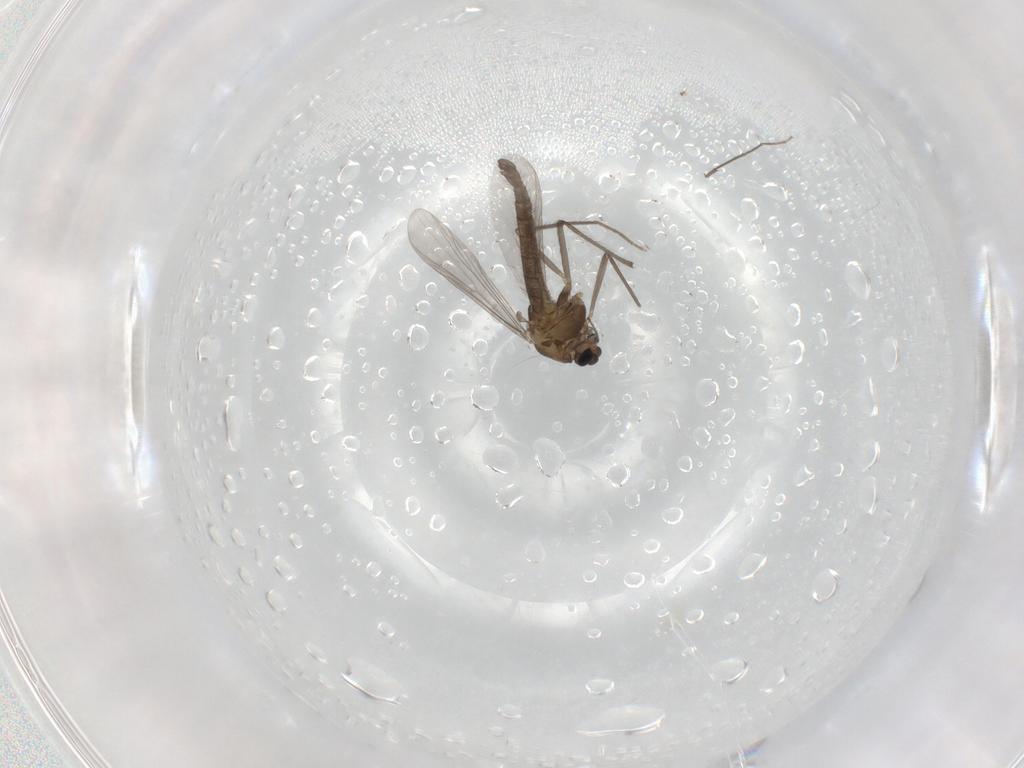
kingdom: Animalia
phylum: Arthropoda
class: Insecta
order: Diptera
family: Chironomidae
